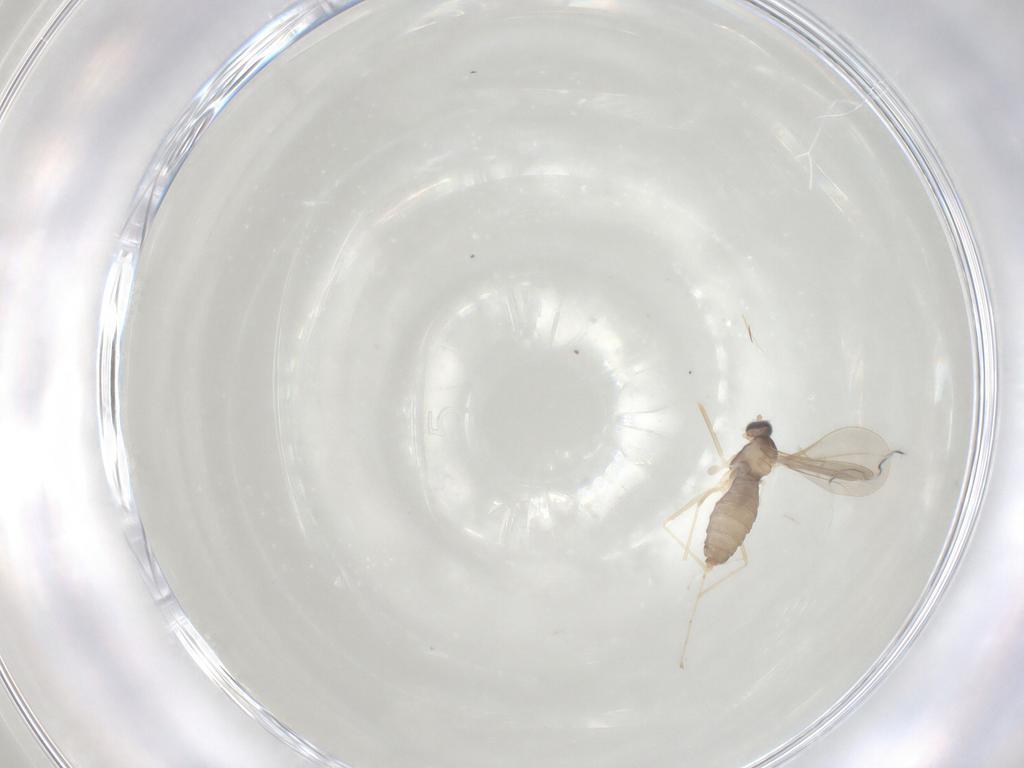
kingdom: Animalia
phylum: Arthropoda
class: Insecta
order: Diptera
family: Cecidomyiidae
